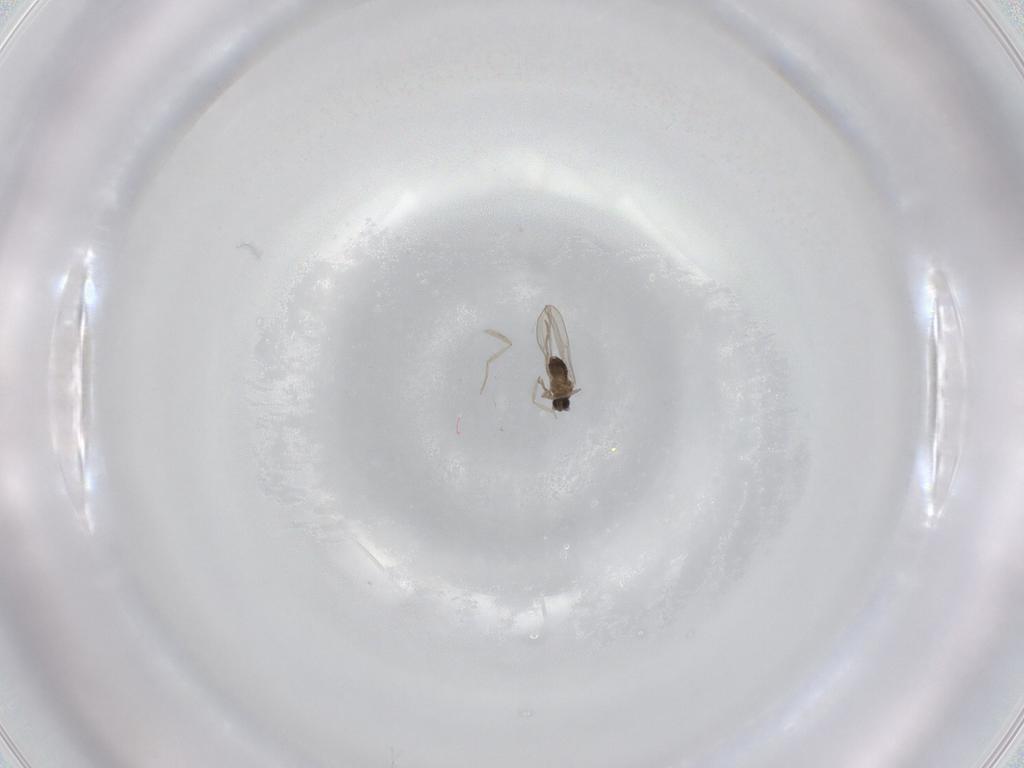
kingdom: Animalia
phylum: Arthropoda
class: Insecta
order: Diptera
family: Cecidomyiidae
